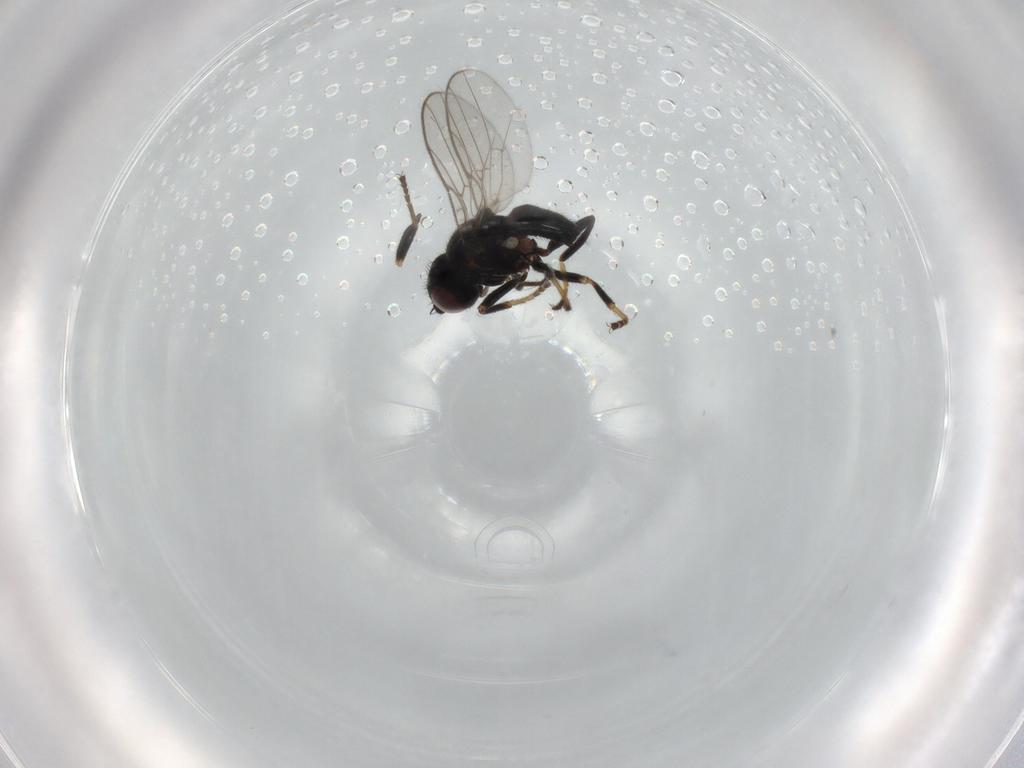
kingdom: Animalia
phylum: Arthropoda
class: Insecta
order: Diptera
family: Chloropidae
